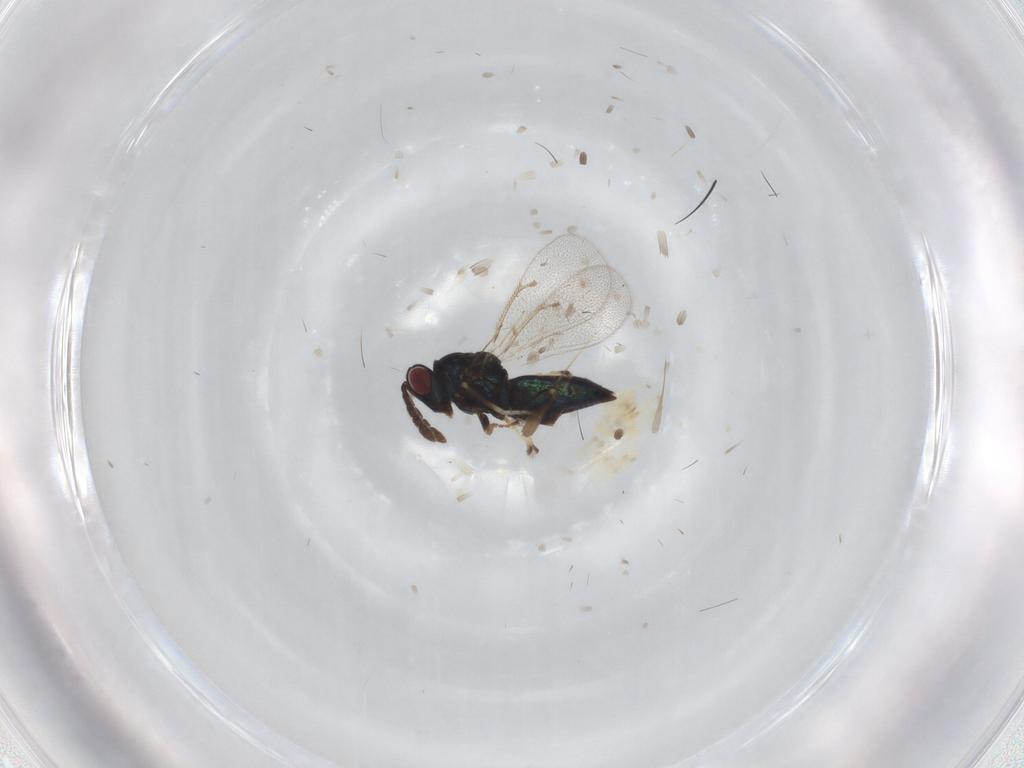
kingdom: Animalia
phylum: Arthropoda
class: Insecta
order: Hymenoptera
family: Eulophidae
